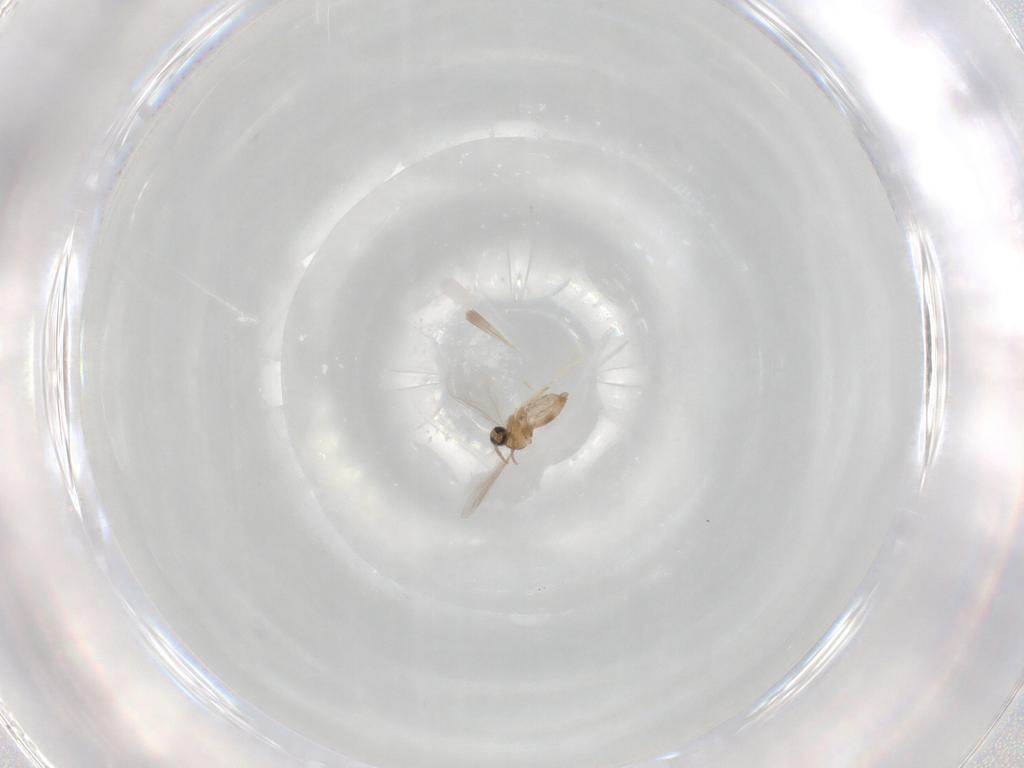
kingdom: Animalia
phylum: Arthropoda
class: Insecta
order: Diptera
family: Cecidomyiidae
